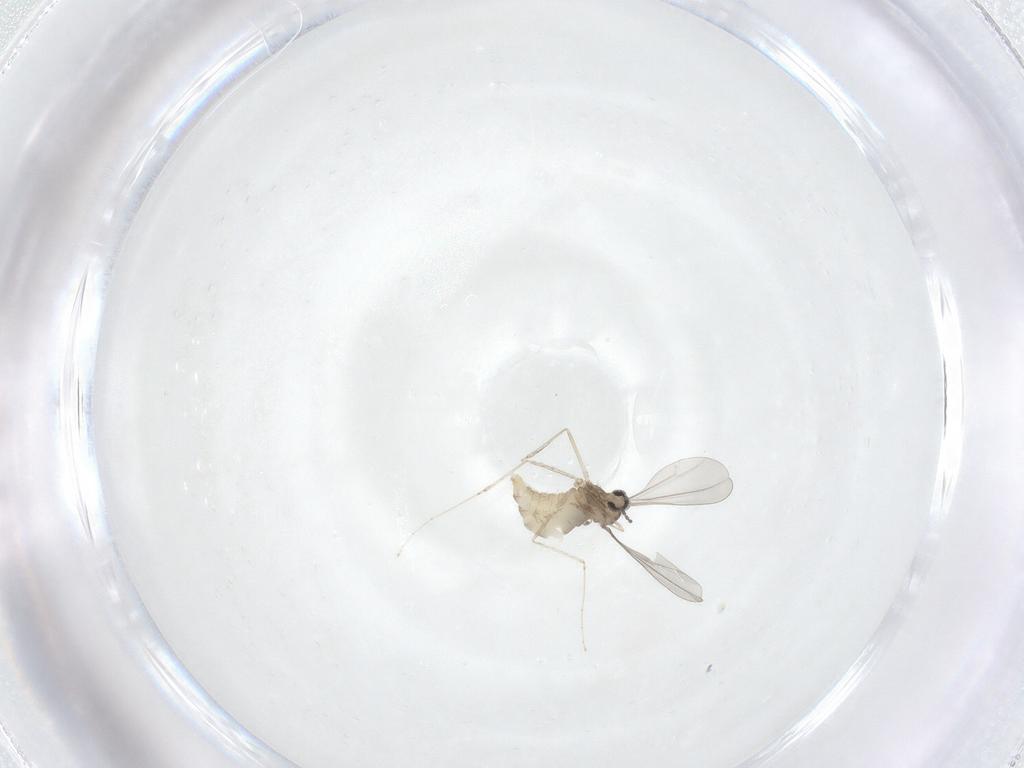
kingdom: Animalia
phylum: Arthropoda
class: Insecta
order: Diptera
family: Cecidomyiidae
